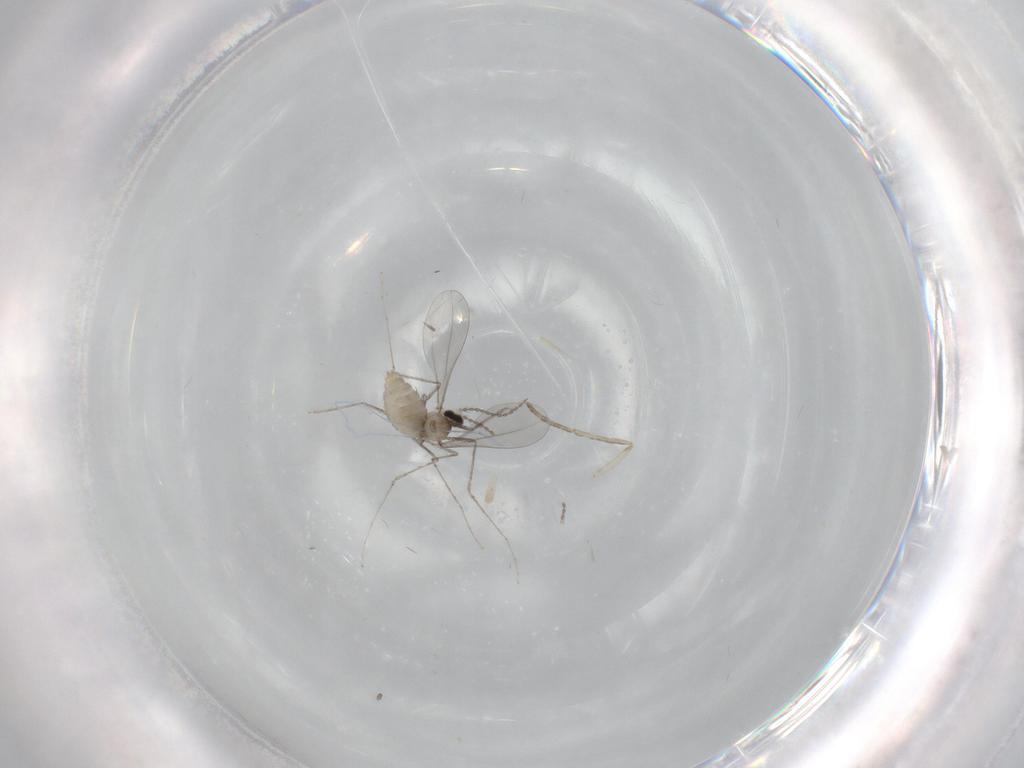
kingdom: Animalia
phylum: Arthropoda
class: Insecta
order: Diptera
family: Cecidomyiidae
